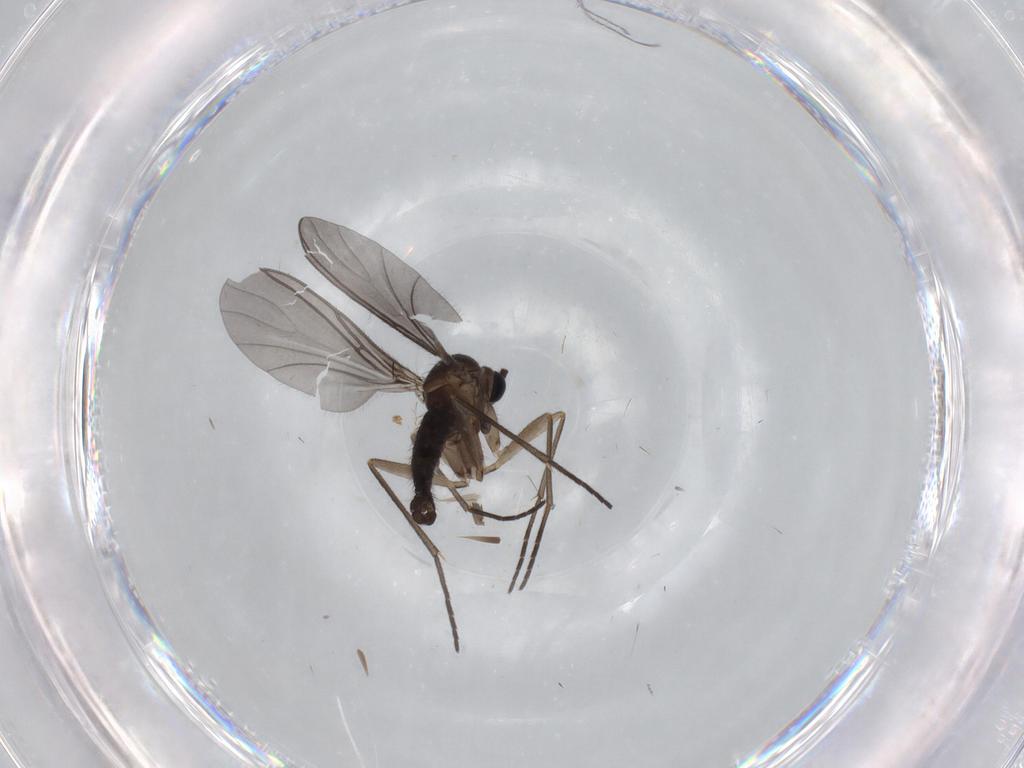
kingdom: Animalia
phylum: Arthropoda
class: Insecta
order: Diptera
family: Sciaridae
